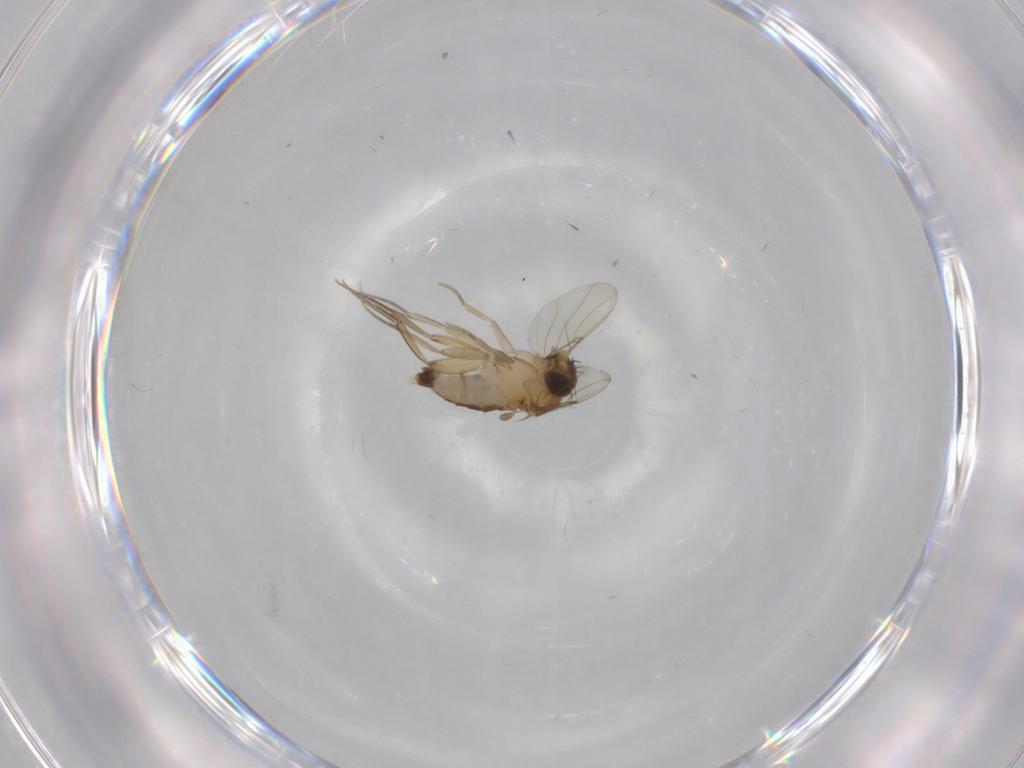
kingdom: Animalia
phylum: Arthropoda
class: Insecta
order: Diptera
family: Phoridae
